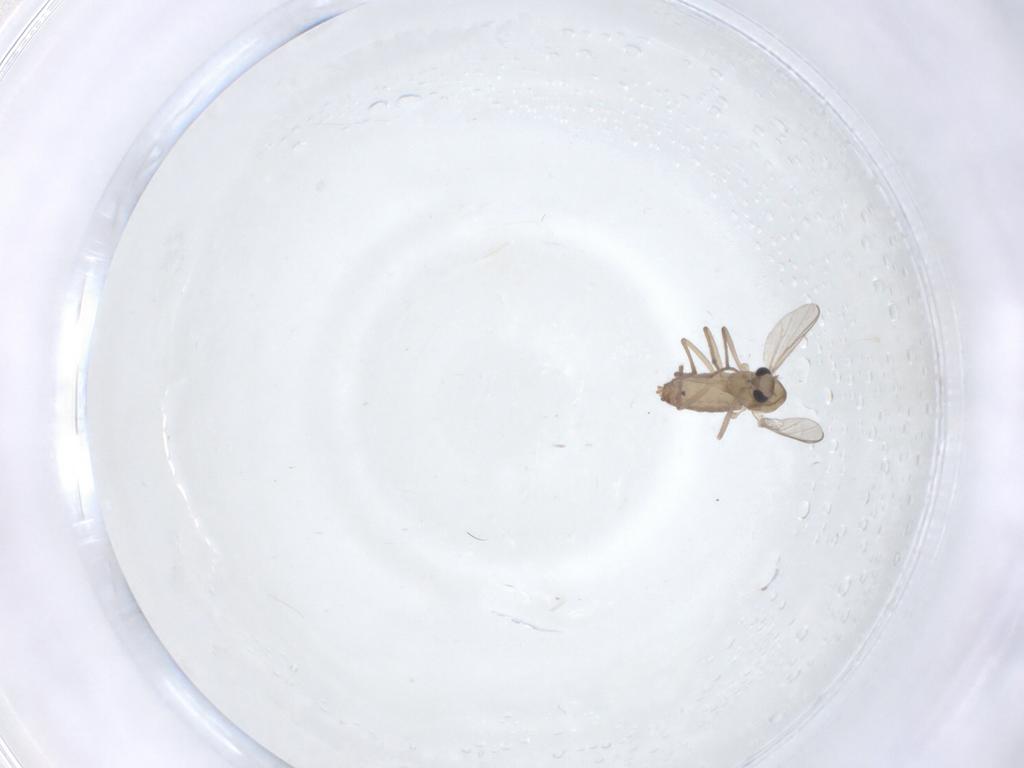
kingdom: Animalia
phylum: Arthropoda
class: Insecta
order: Diptera
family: Chironomidae
